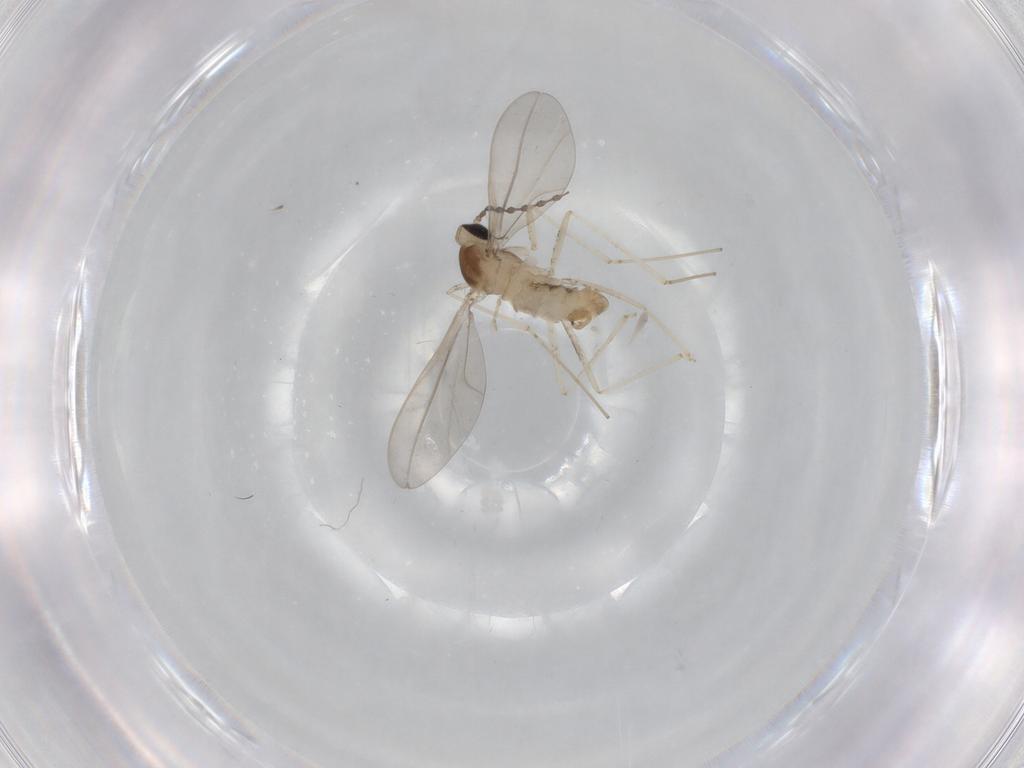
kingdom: Animalia
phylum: Arthropoda
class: Insecta
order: Diptera
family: Cecidomyiidae
